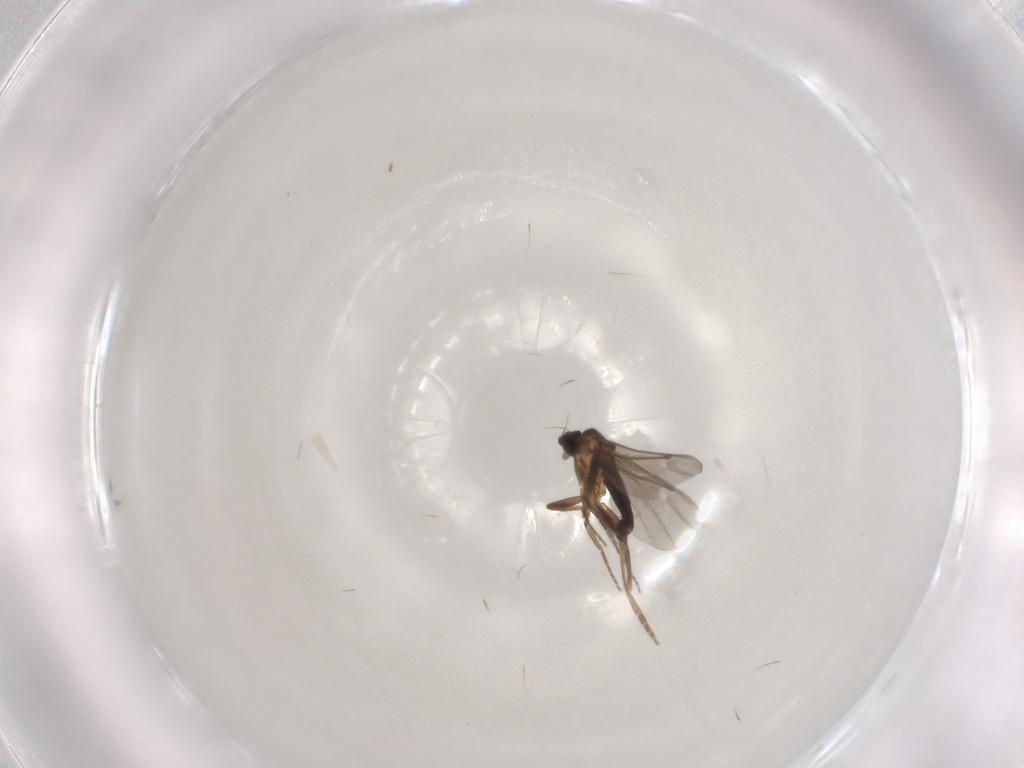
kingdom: Animalia
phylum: Arthropoda
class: Insecta
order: Diptera
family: Phoridae
